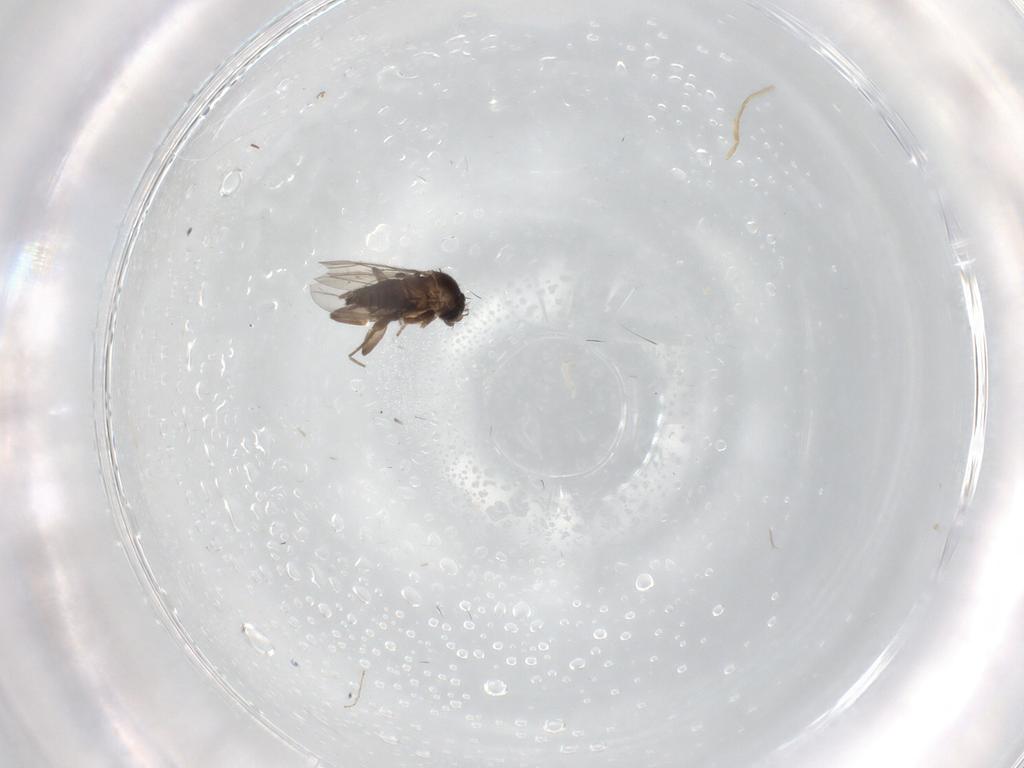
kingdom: Animalia
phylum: Arthropoda
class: Insecta
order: Diptera
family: Cecidomyiidae
